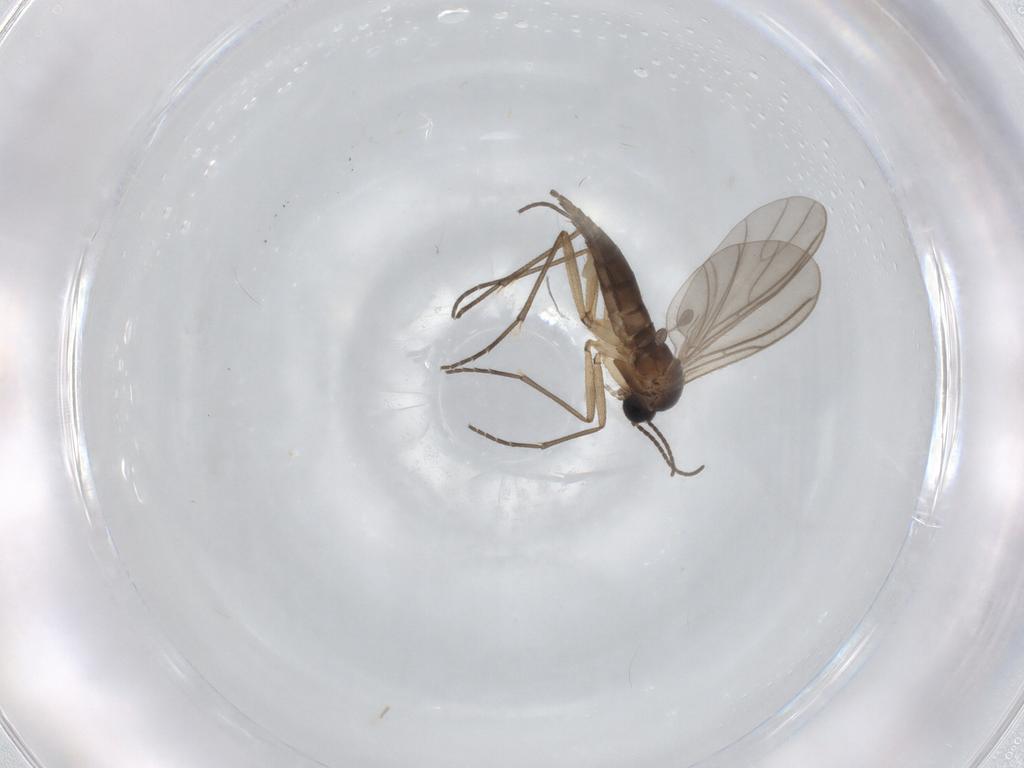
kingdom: Animalia
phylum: Arthropoda
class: Insecta
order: Diptera
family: Sciaridae
